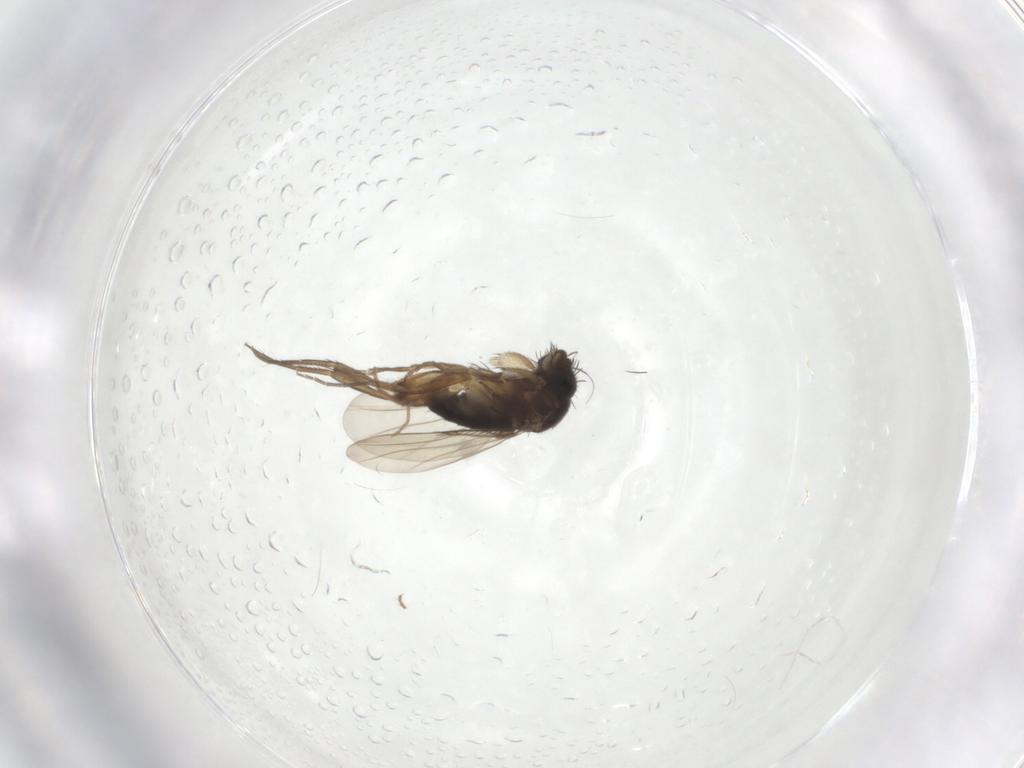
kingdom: Animalia
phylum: Arthropoda
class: Insecta
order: Diptera
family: Phoridae
